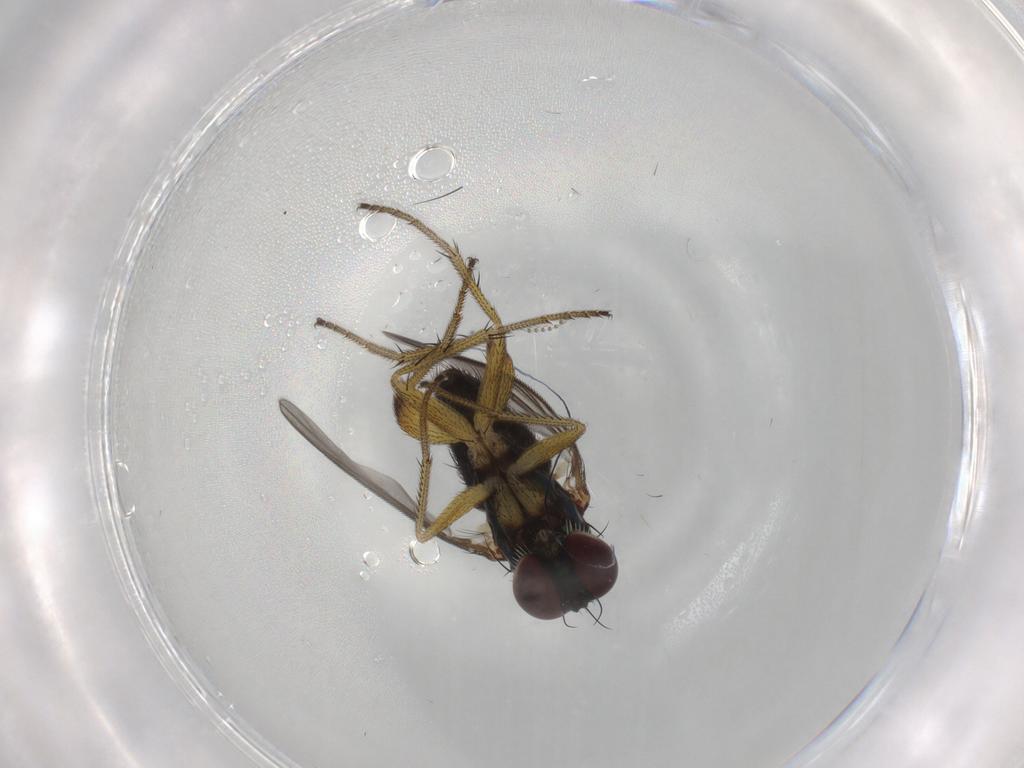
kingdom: Animalia
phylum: Arthropoda
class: Insecta
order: Diptera
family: Dolichopodidae
